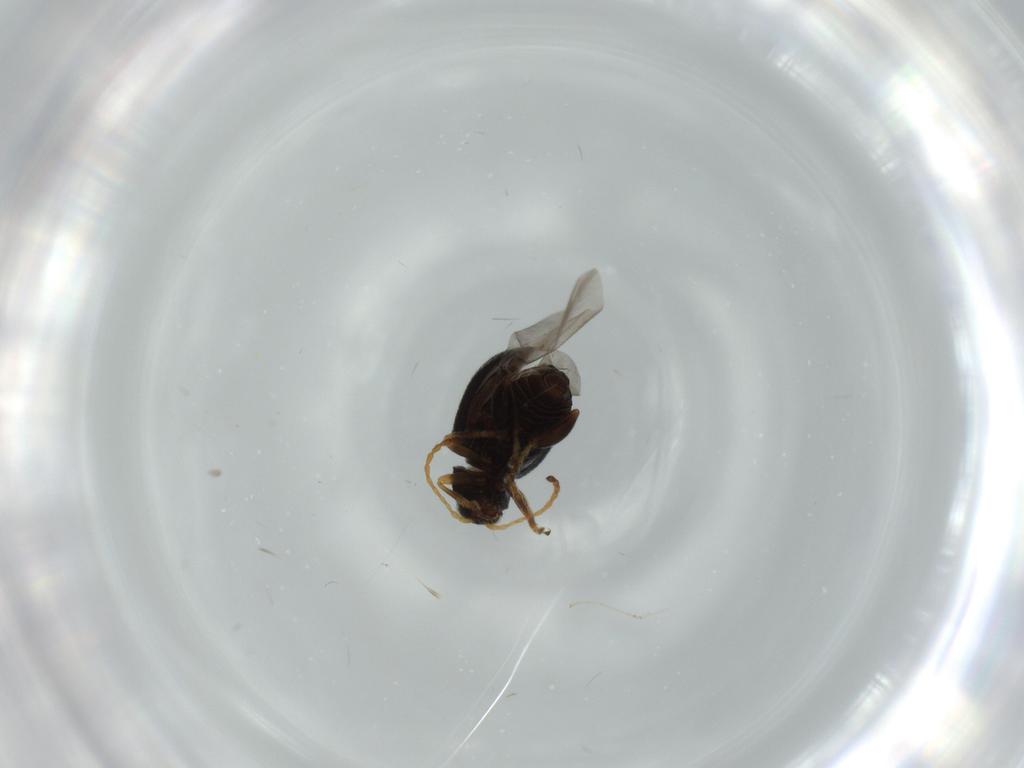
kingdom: Animalia
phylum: Arthropoda
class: Insecta
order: Coleoptera
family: Chrysomelidae
